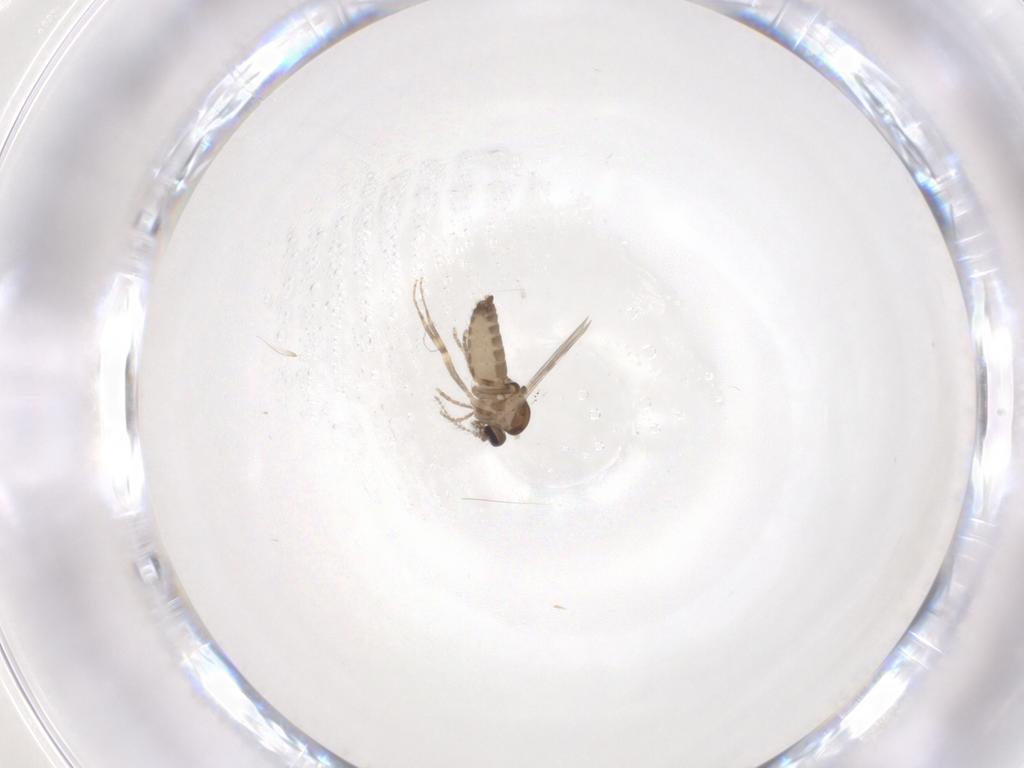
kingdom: Animalia
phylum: Arthropoda
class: Insecta
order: Diptera
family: Ceratopogonidae
